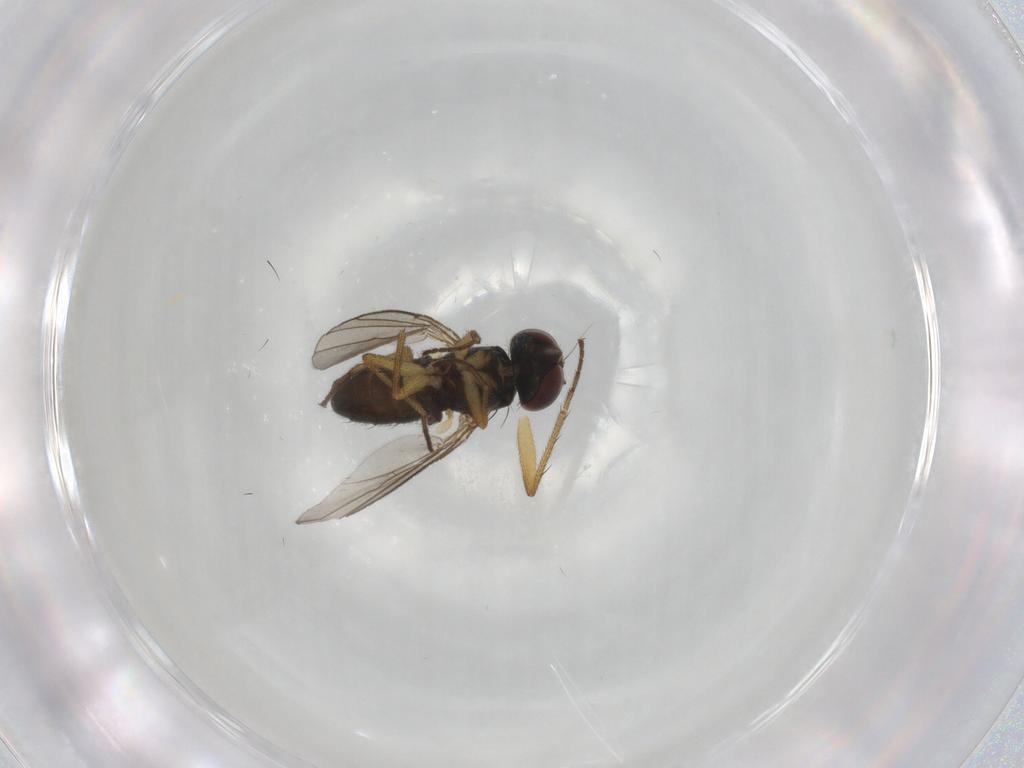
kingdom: Animalia
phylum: Arthropoda
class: Insecta
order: Diptera
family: Dolichopodidae
